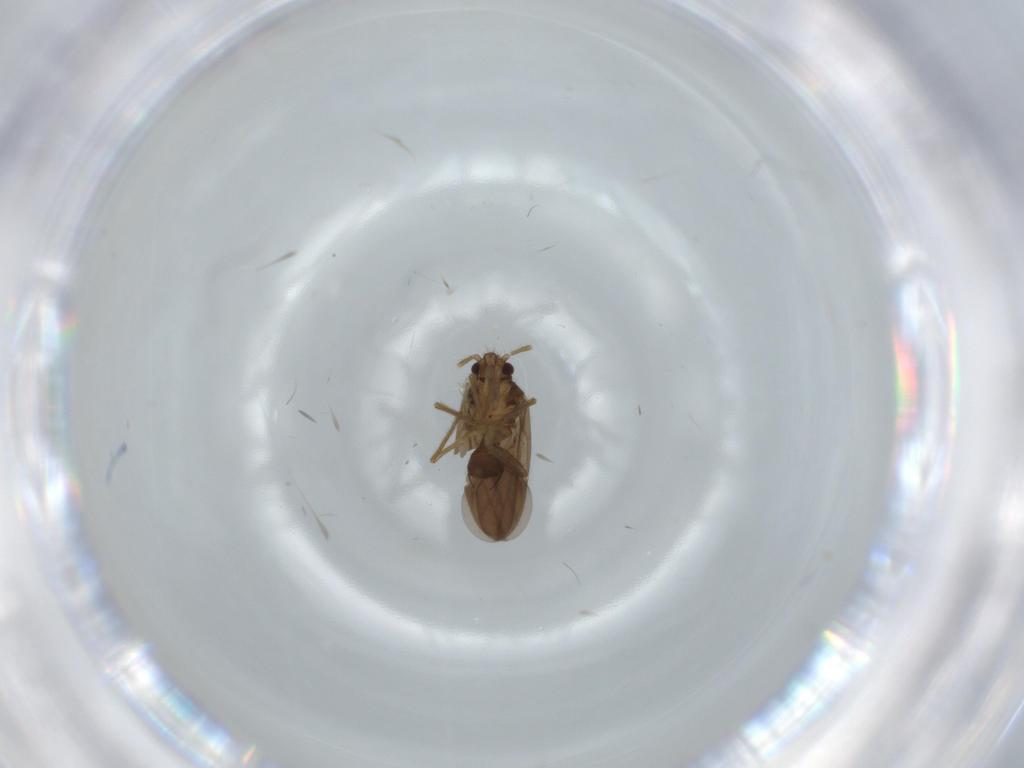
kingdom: Animalia
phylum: Arthropoda
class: Insecta
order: Hemiptera
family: Ceratocombidae
